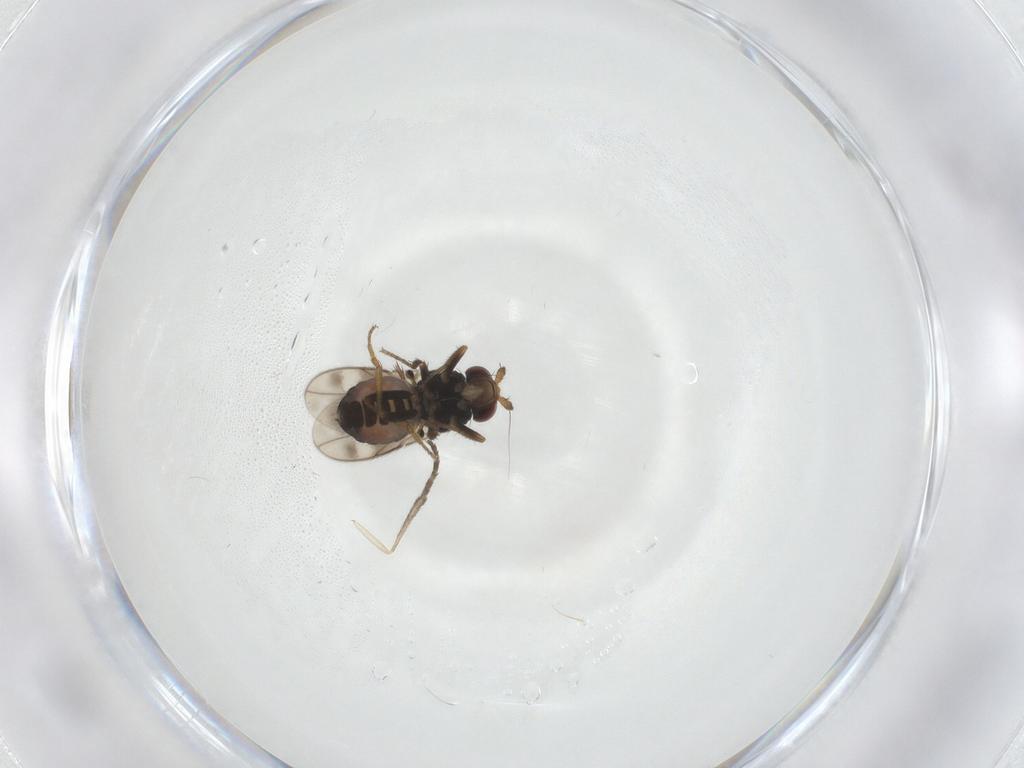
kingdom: Animalia
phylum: Arthropoda
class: Insecta
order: Diptera
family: Sphaeroceridae
